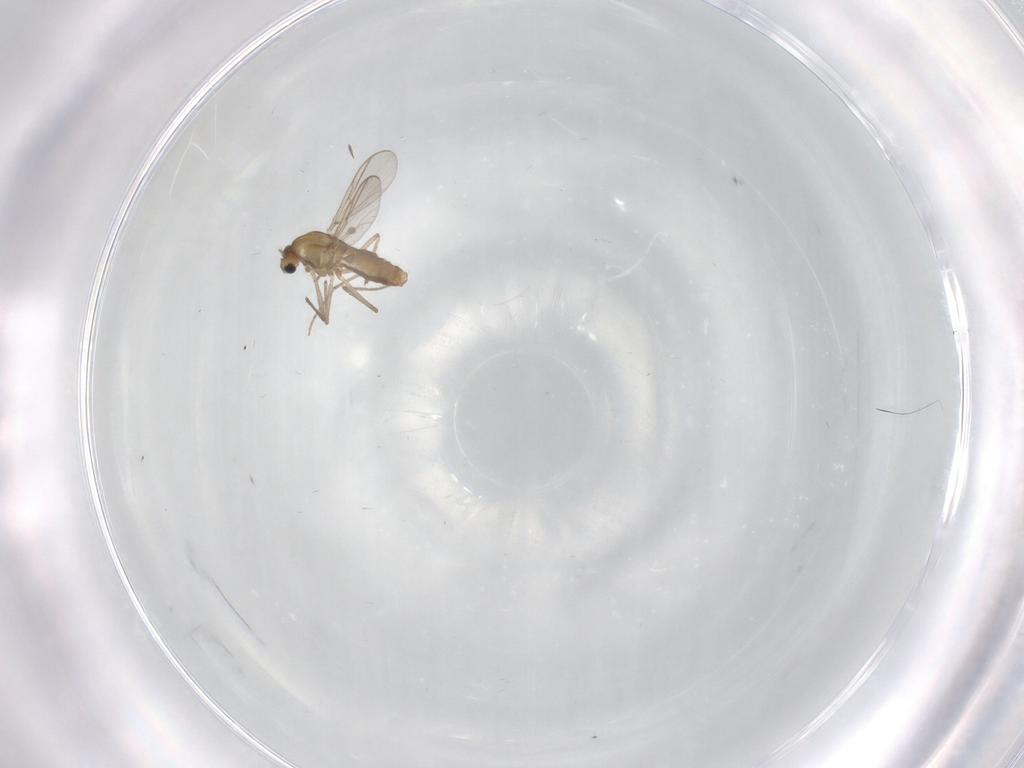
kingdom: Animalia
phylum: Arthropoda
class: Insecta
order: Diptera
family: Chironomidae
